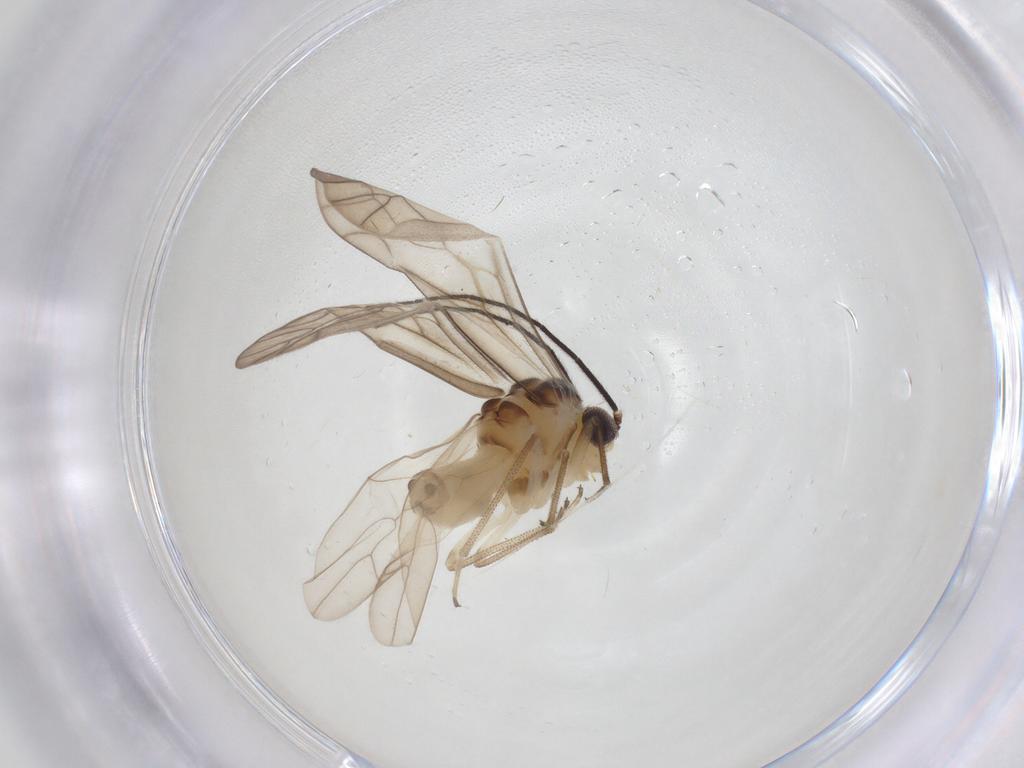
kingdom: Animalia
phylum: Arthropoda
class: Insecta
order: Psocodea
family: Caeciliusidae
